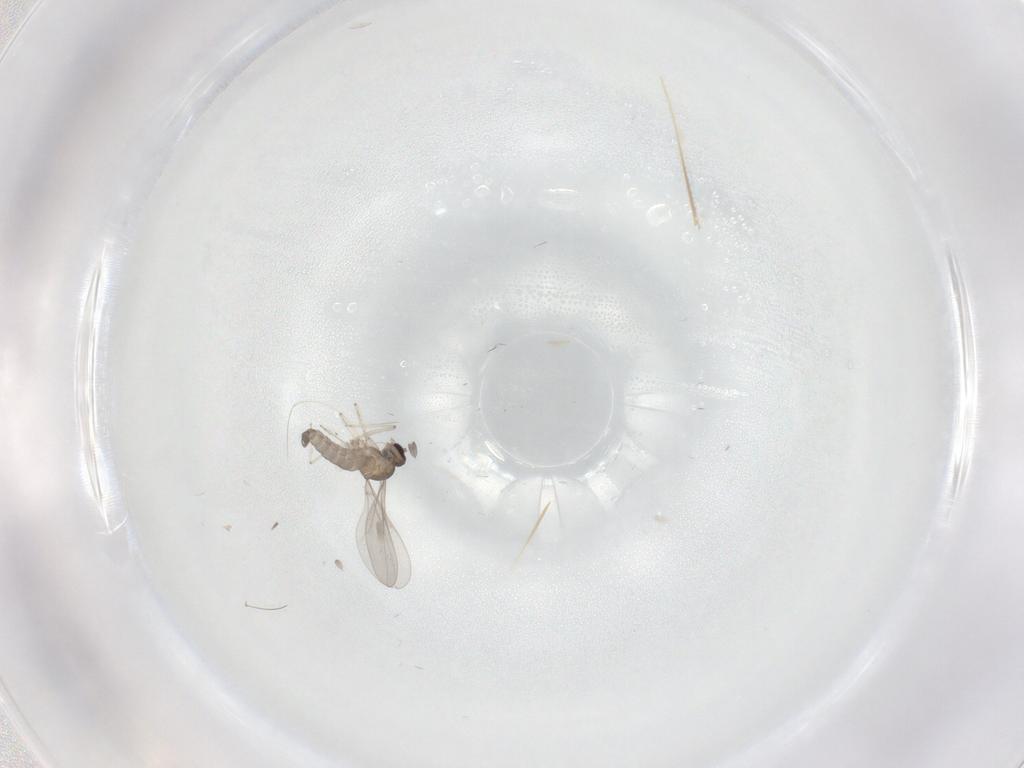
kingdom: Animalia
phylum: Arthropoda
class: Insecta
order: Diptera
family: Cecidomyiidae
